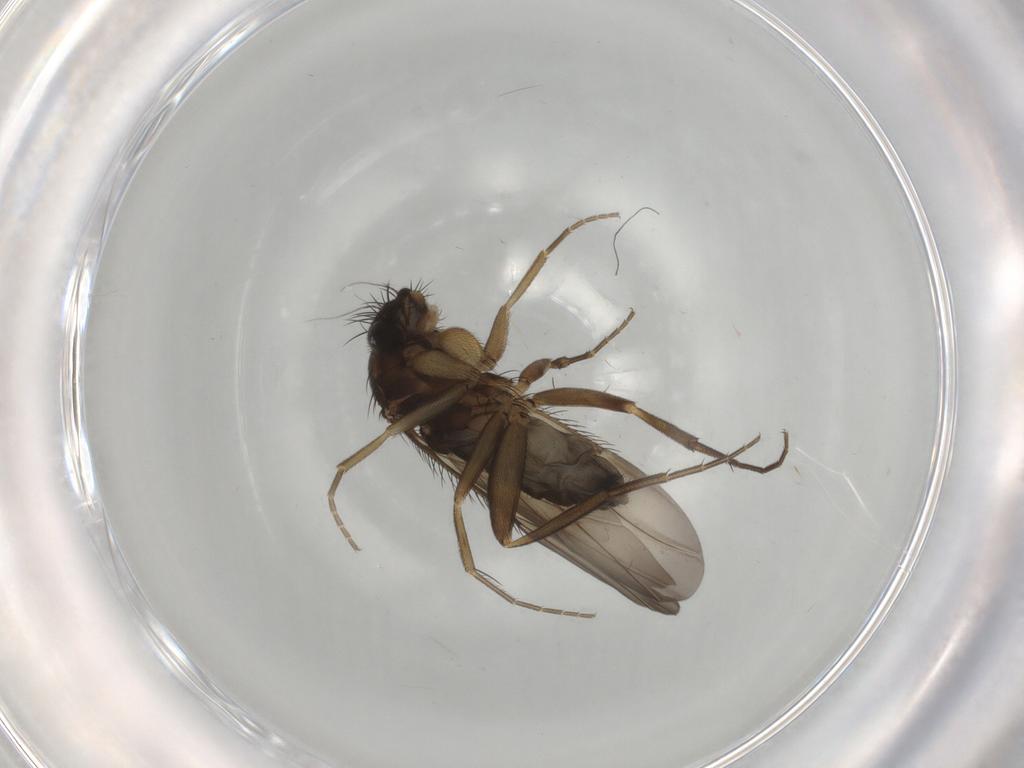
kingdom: Animalia
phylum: Arthropoda
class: Insecta
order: Diptera
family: Phoridae
